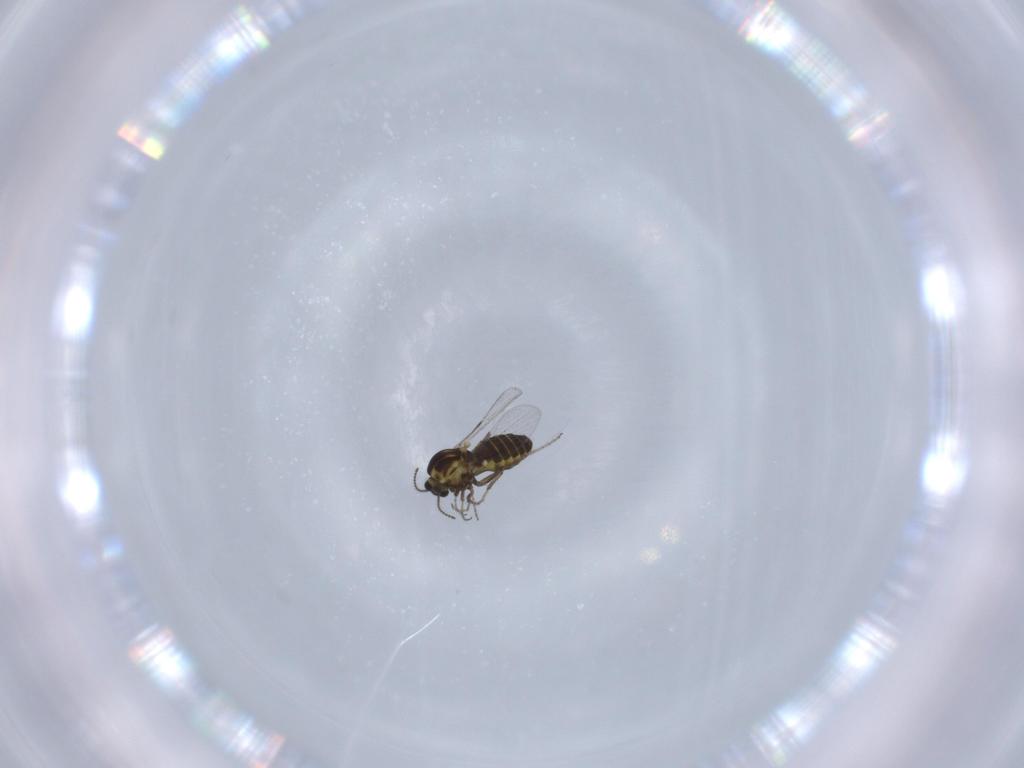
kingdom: Animalia
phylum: Arthropoda
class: Insecta
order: Diptera
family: Ceratopogonidae
